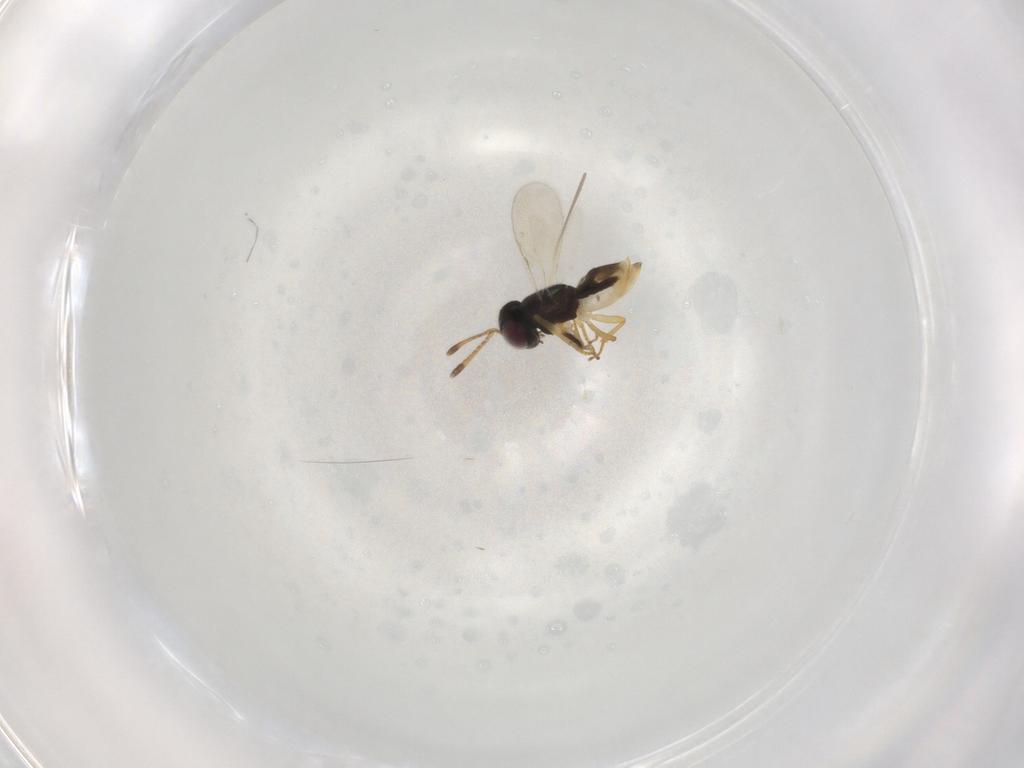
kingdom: Animalia
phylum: Arthropoda
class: Insecta
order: Hymenoptera
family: Encyrtidae
